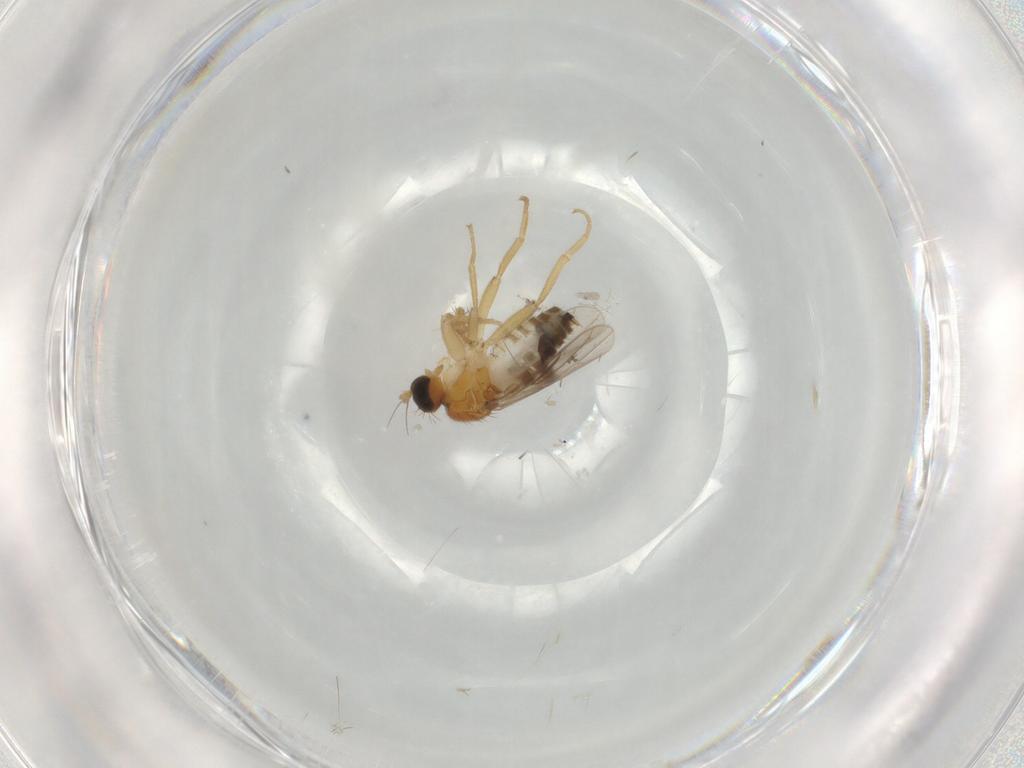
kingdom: Animalia
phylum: Arthropoda
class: Insecta
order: Diptera
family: Hybotidae
